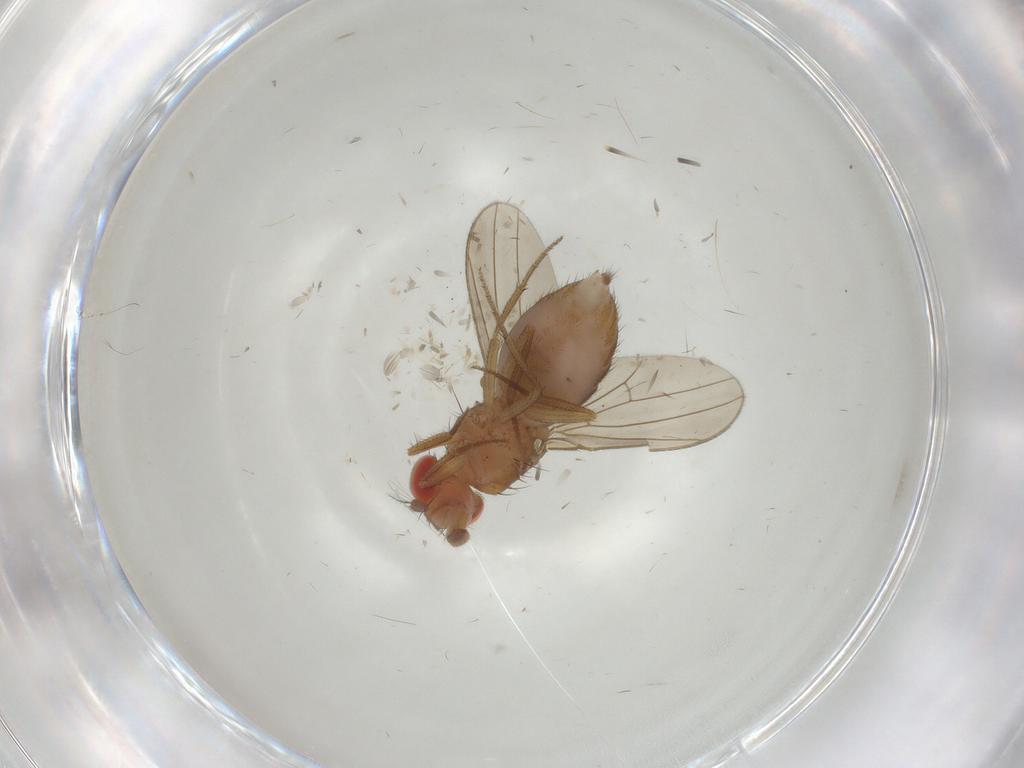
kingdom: Animalia
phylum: Arthropoda
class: Insecta
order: Diptera
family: Drosophilidae
